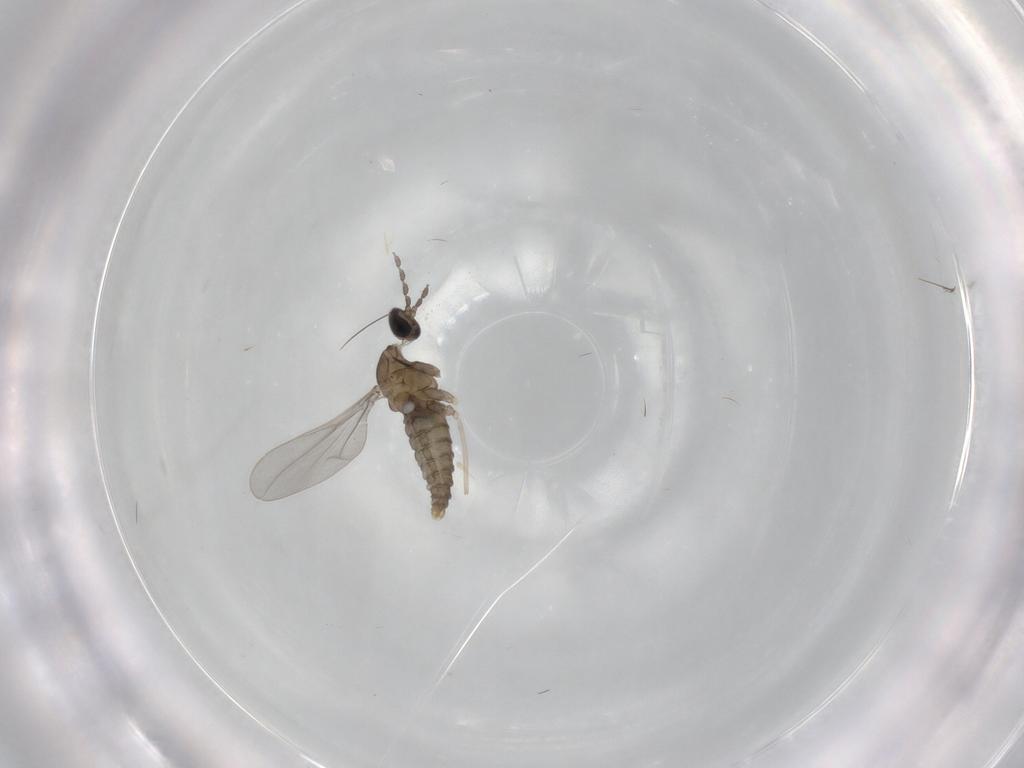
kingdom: Animalia
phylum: Arthropoda
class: Insecta
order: Diptera
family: Cecidomyiidae
